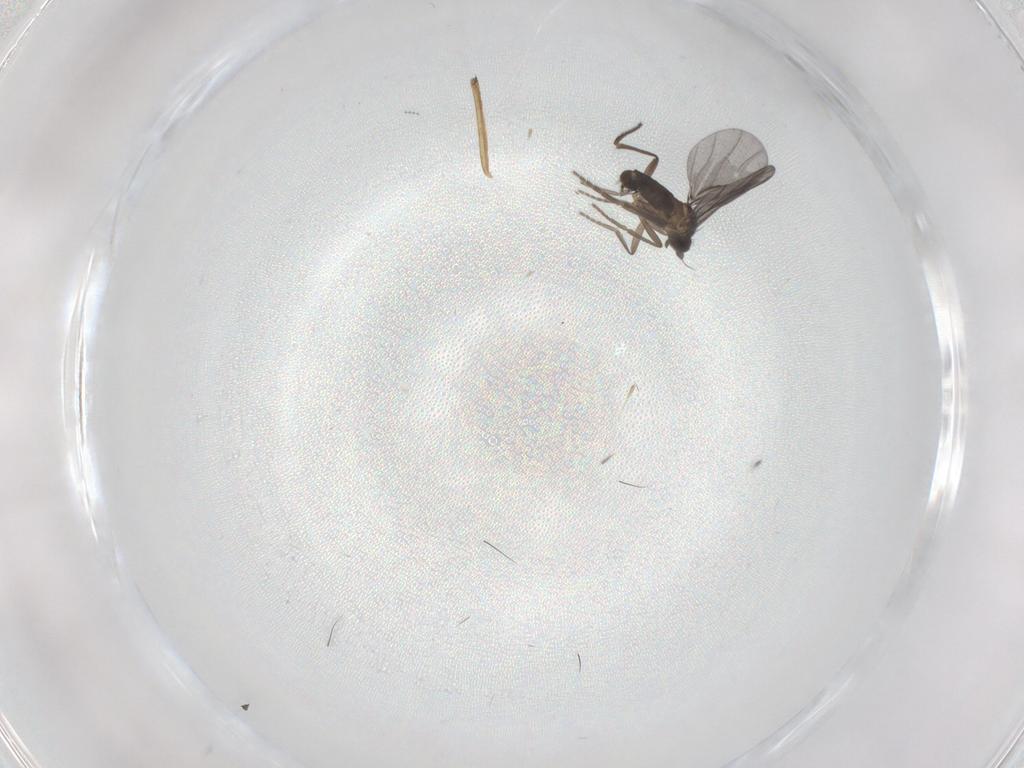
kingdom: Animalia
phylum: Arthropoda
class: Insecta
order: Diptera
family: Phoridae
